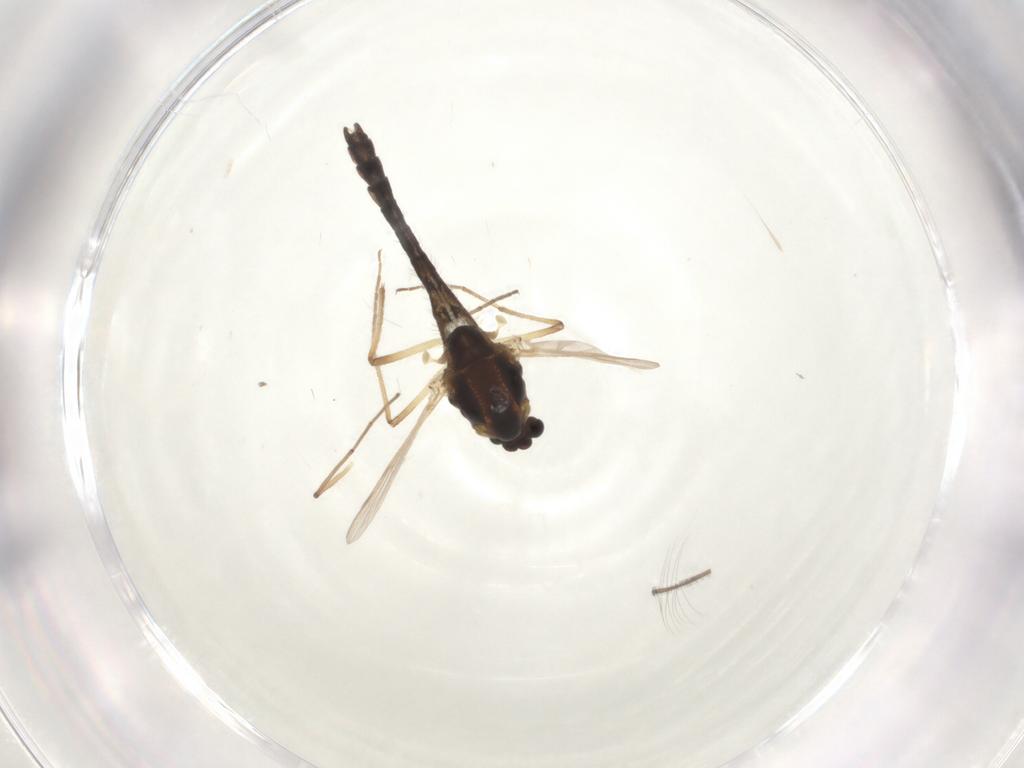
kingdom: Animalia
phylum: Arthropoda
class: Insecta
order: Diptera
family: Chironomidae
